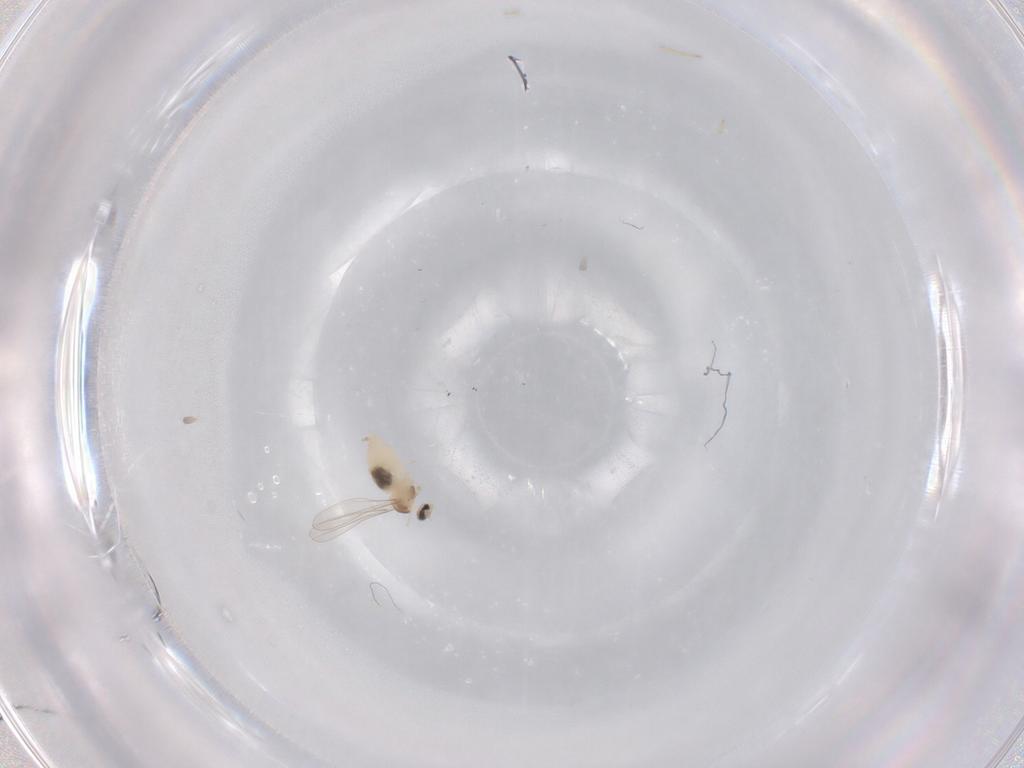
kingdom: Animalia
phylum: Arthropoda
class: Insecta
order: Diptera
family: Cecidomyiidae
